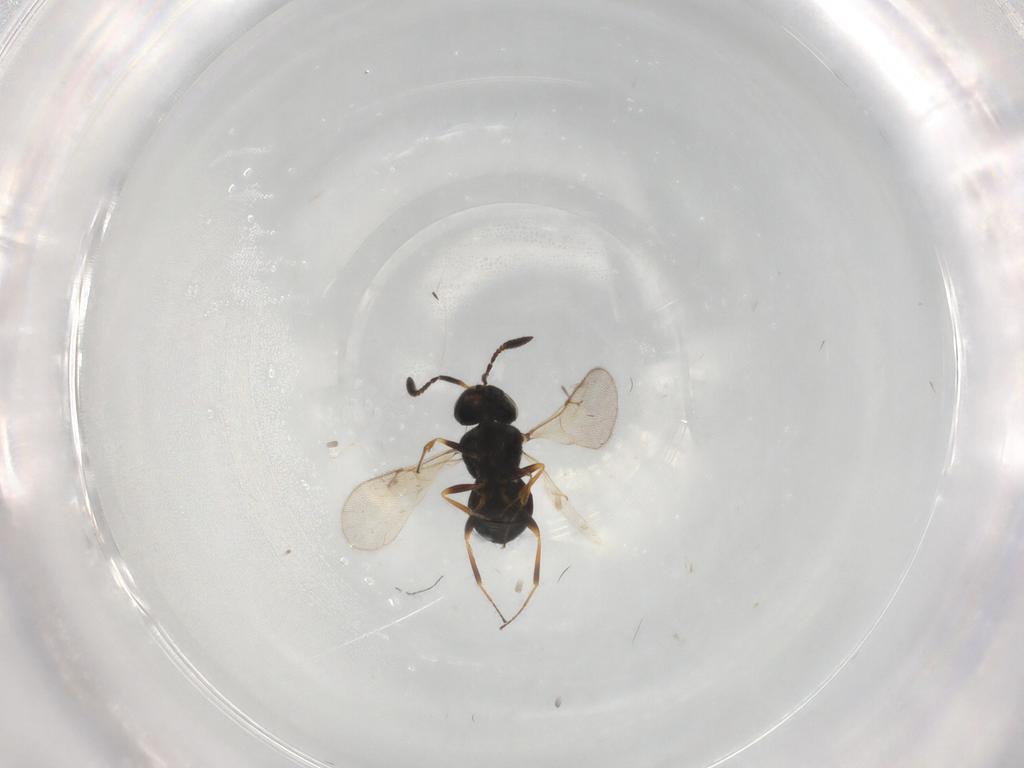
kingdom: Animalia
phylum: Arthropoda
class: Insecta
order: Hymenoptera
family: Scelionidae
